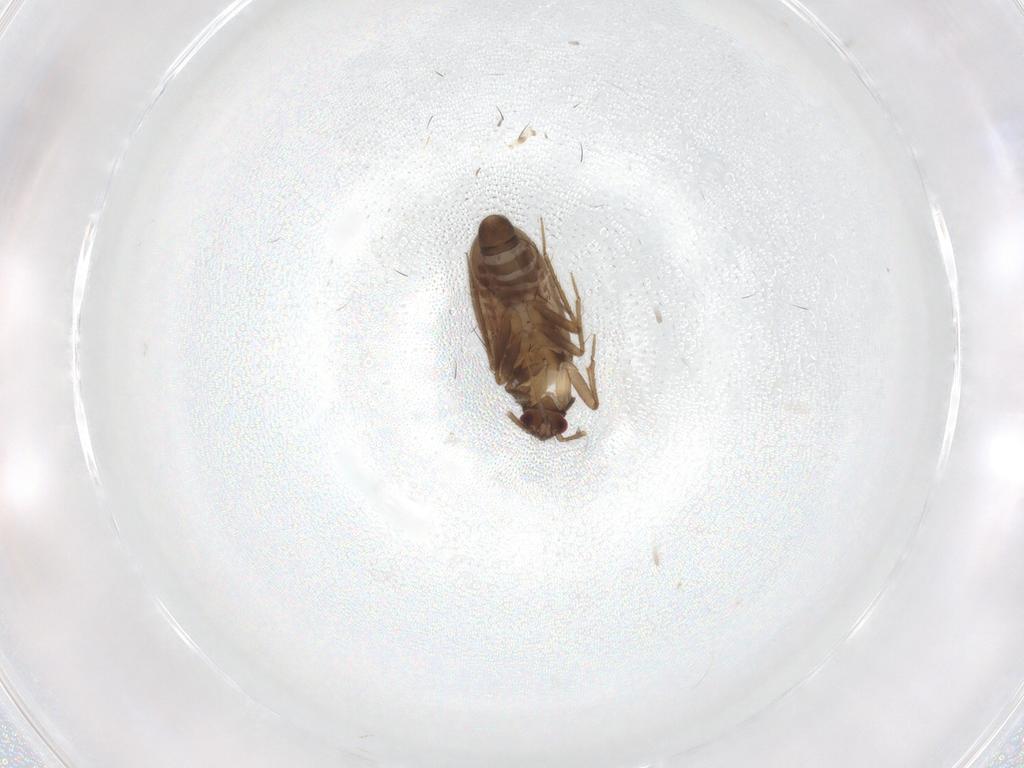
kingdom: Animalia
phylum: Arthropoda
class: Insecta
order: Hemiptera
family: Ceratocombidae
